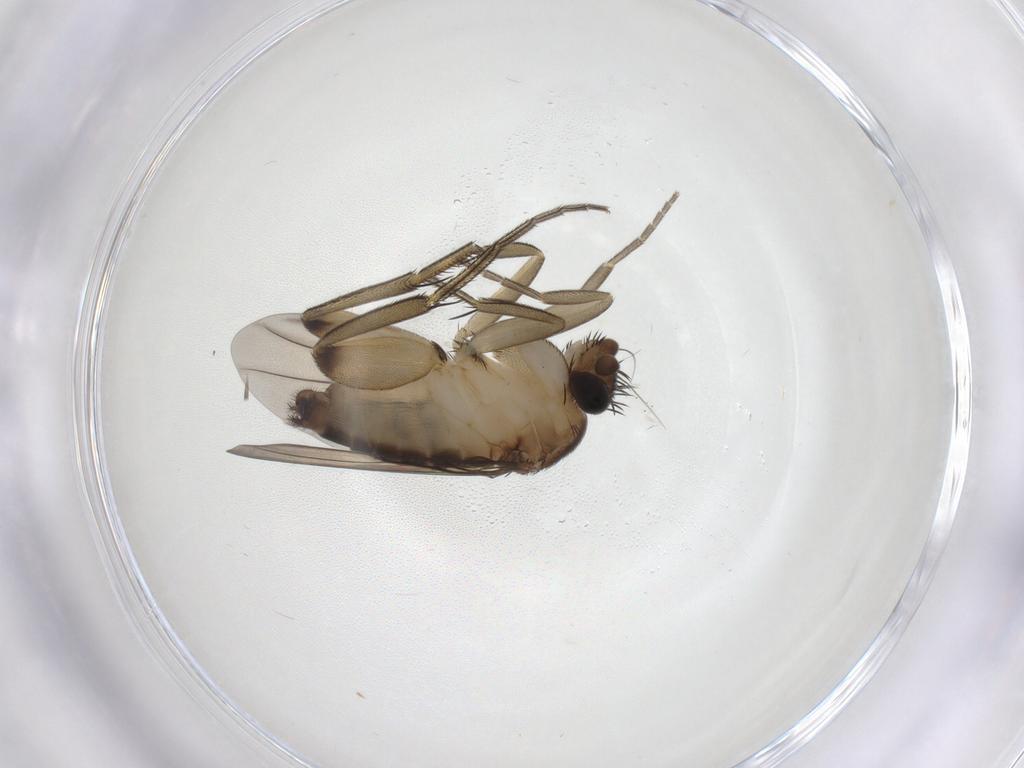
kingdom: Animalia
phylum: Arthropoda
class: Insecta
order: Diptera
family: Phoridae
